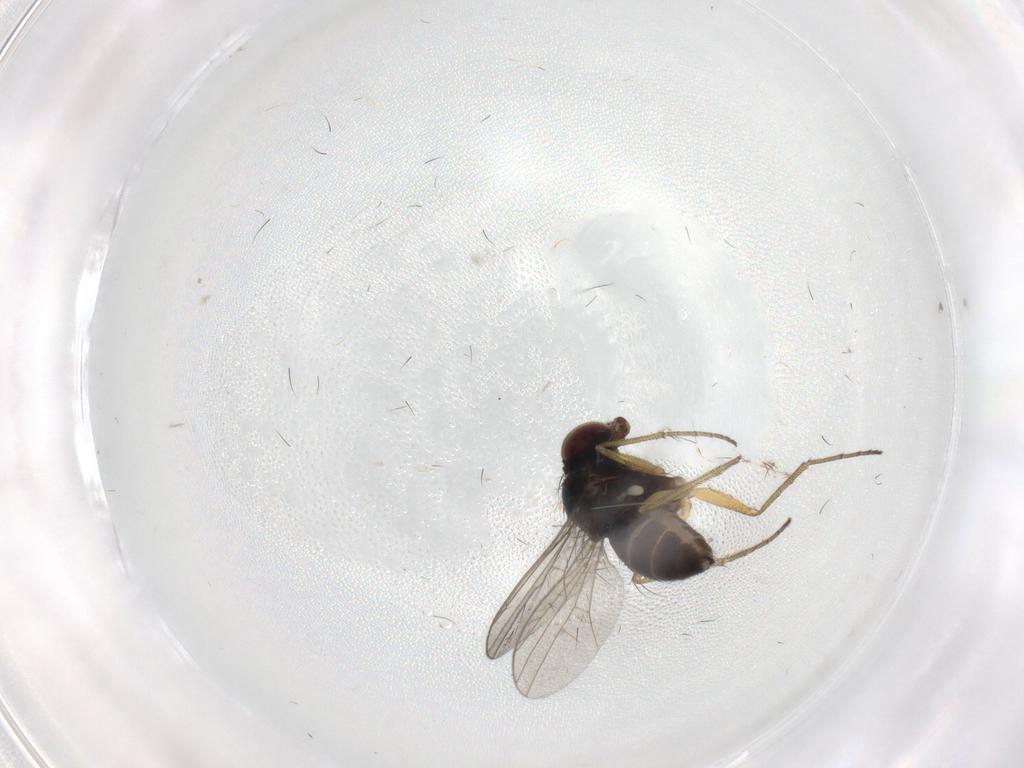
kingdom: Animalia
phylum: Arthropoda
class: Insecta
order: Diptera
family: Dolichopodidae
